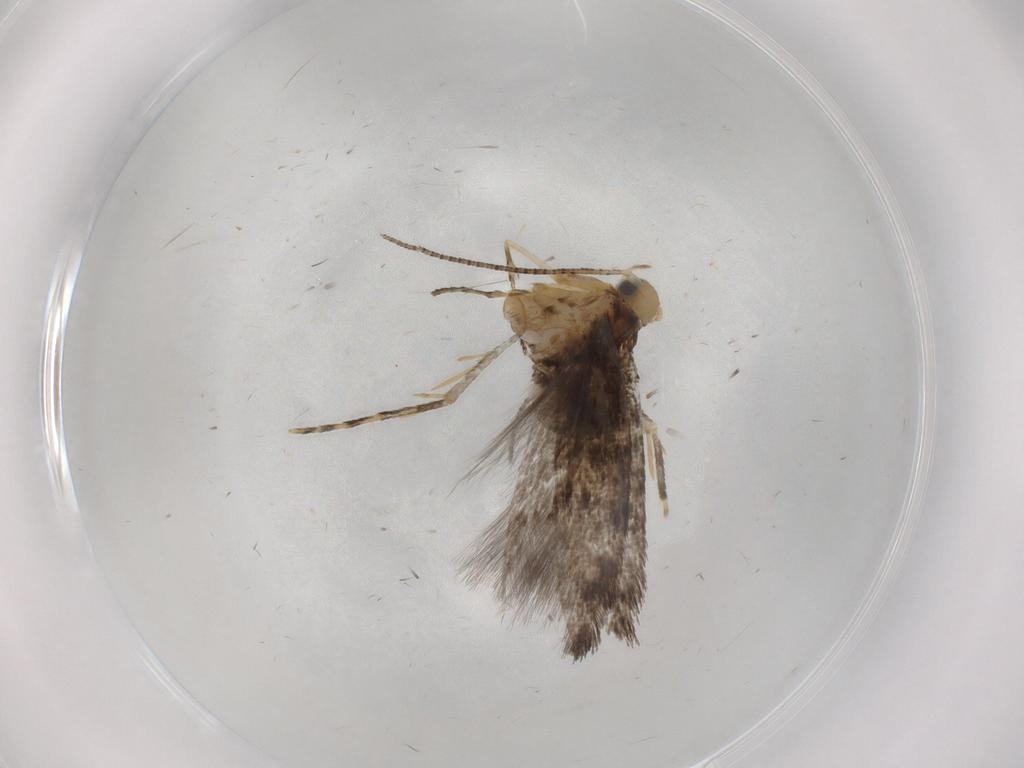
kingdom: Animalia
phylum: Arthropoda
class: Insecta
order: Lepidoptera
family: Argyresthiidae
